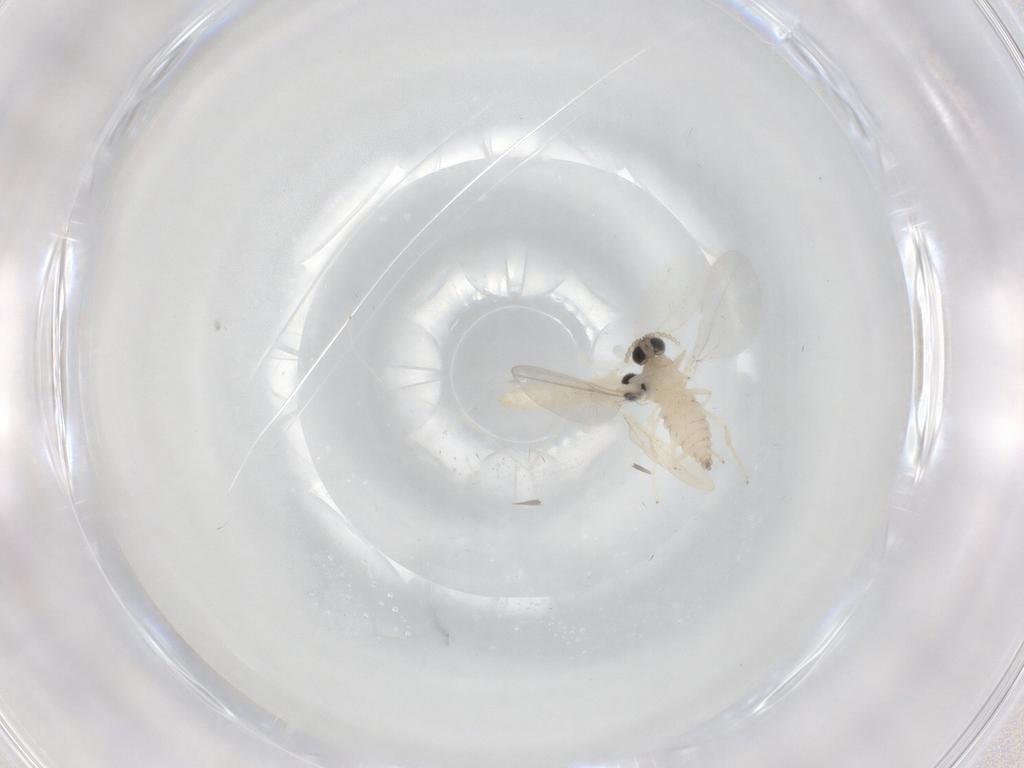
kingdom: Animalia
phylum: Arthropoda
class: Insecta
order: Diptera
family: Cecidomyiidae
